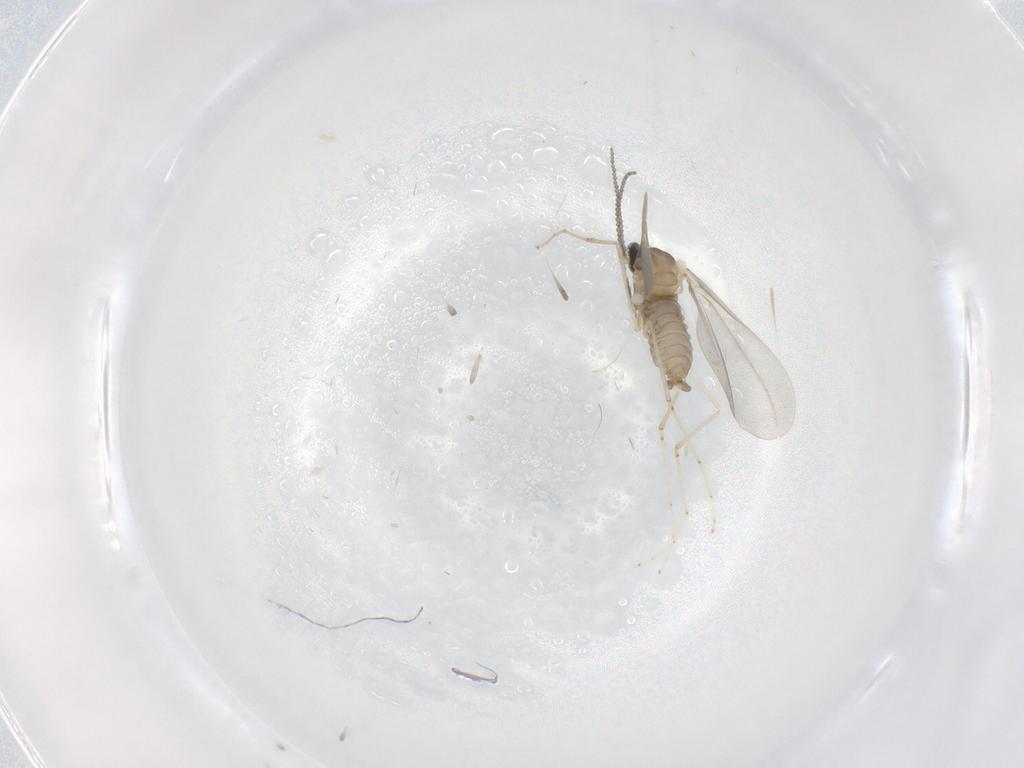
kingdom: Animalia
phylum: Arthropoda
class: Insecta
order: Diptera
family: Cecidomyiidae
